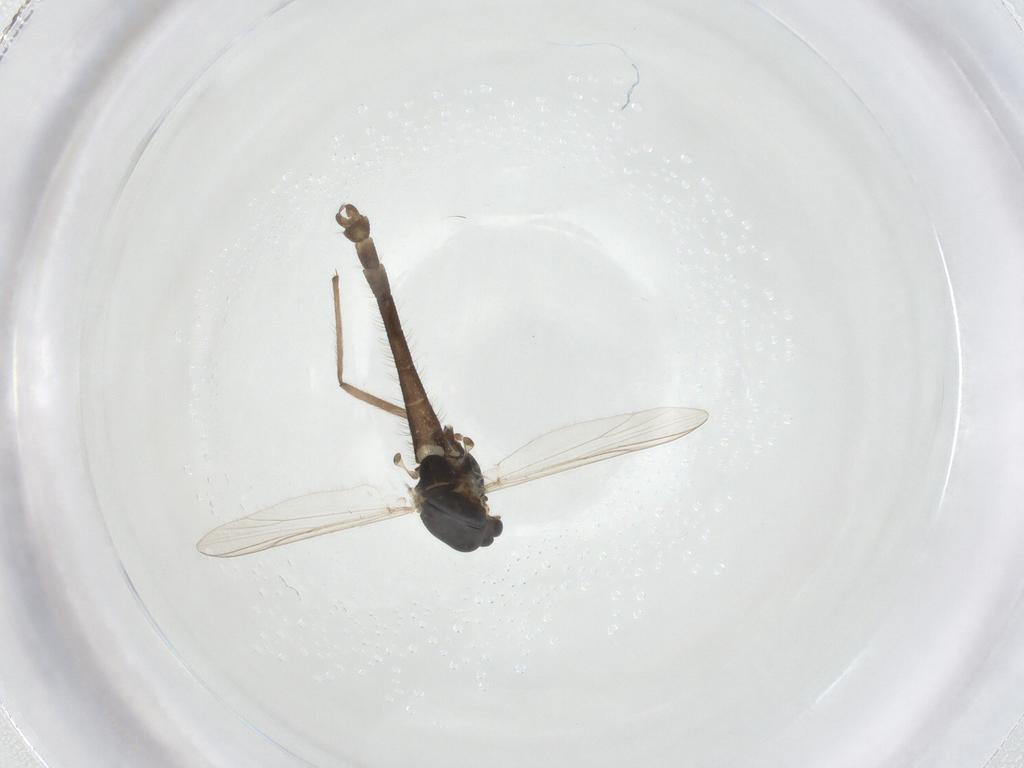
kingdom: Animalia
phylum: Arthropoda
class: Insecta
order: Diptera
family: Chironomidae
